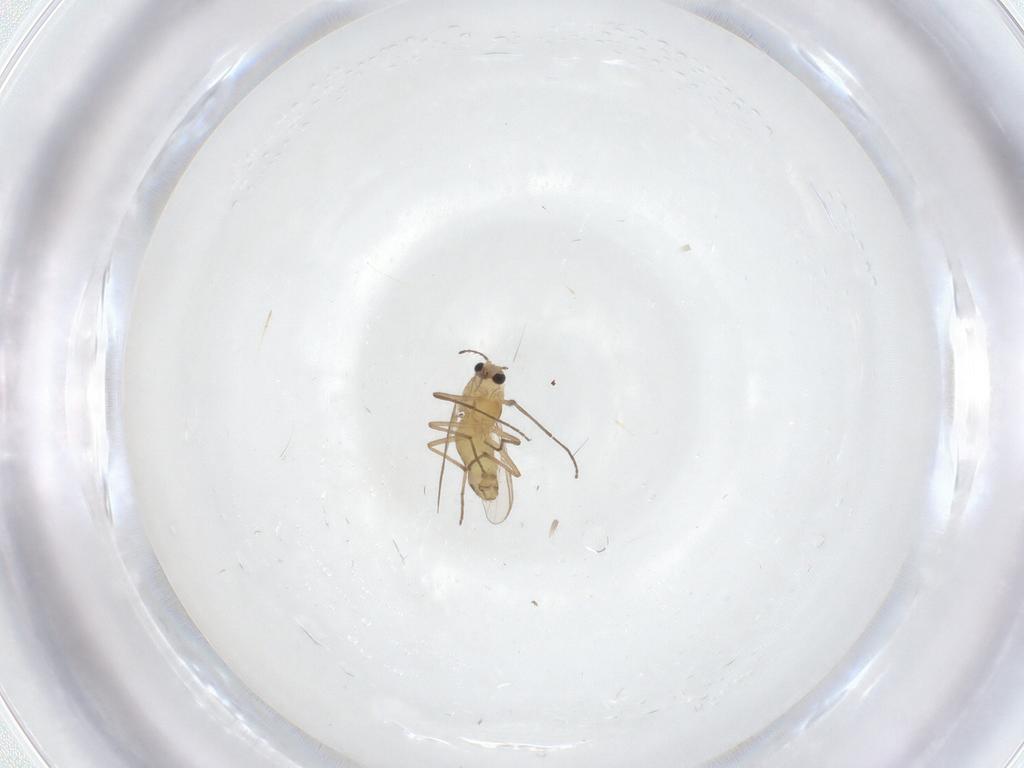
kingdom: Animalia
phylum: Arthropoda
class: Insecta
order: Diptera
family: Chironomidae
